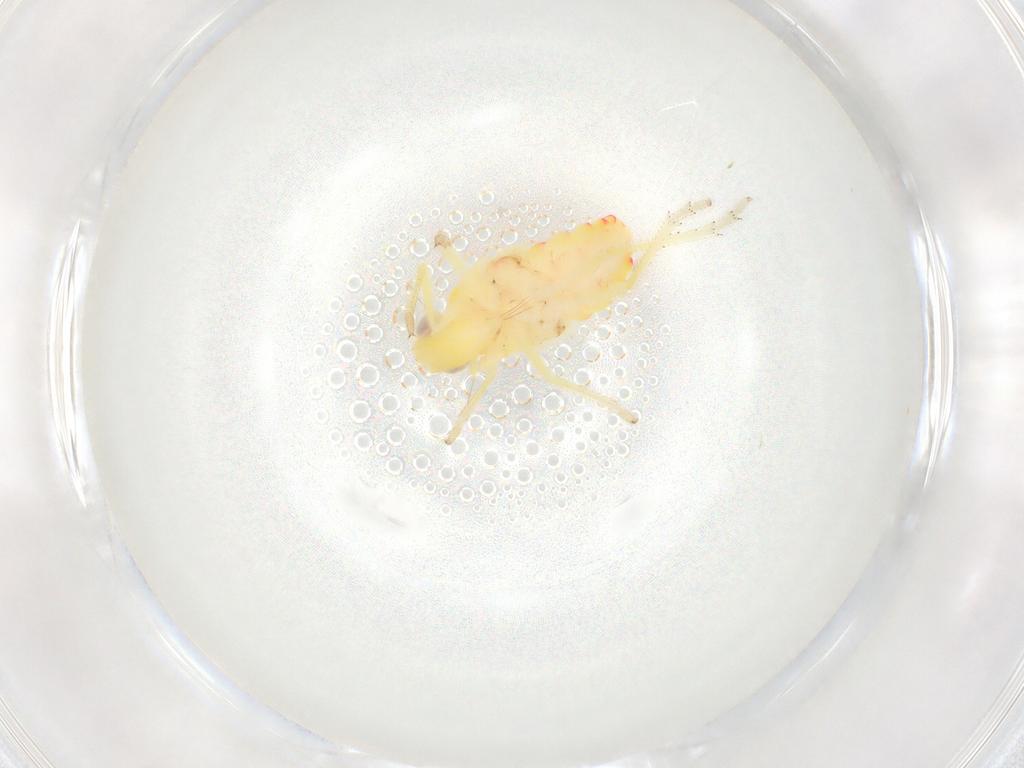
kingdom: Animalia
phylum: Arthropoda
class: Insecta
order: Hemiptera
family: Tropiduchidae
